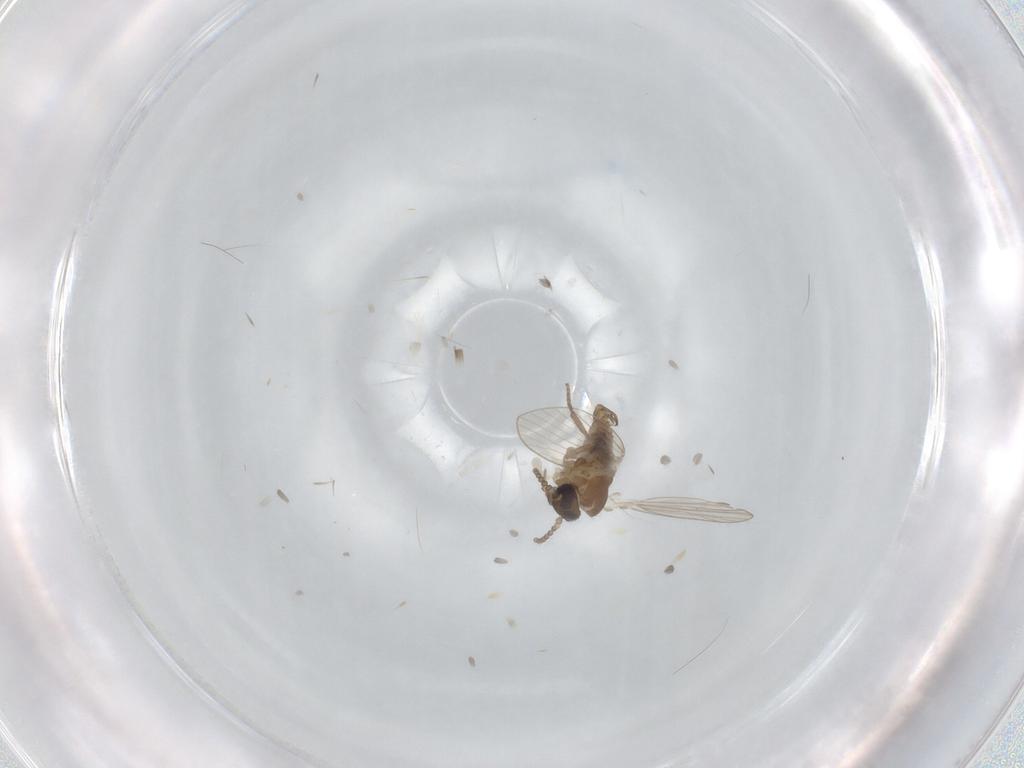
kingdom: Animalia
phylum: Arthropoda
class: Insecta
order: Diptera
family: Psychodidae
